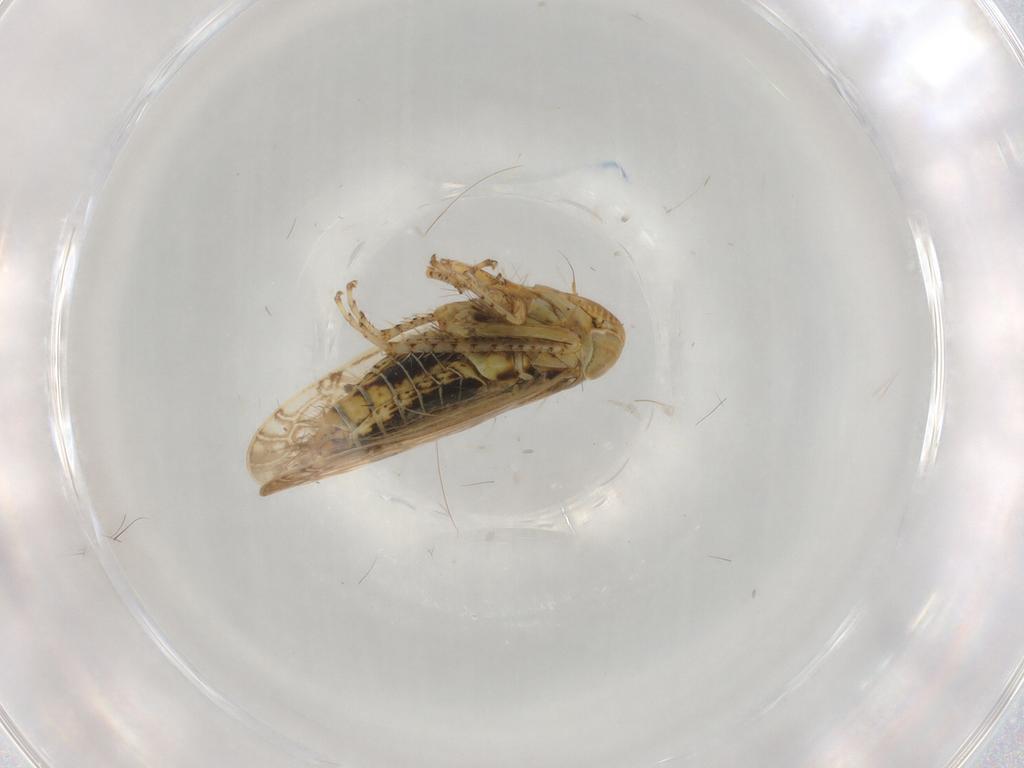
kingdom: Animalia
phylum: Arthropoda
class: Insecta
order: Hemiptera
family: Cicadellidae
